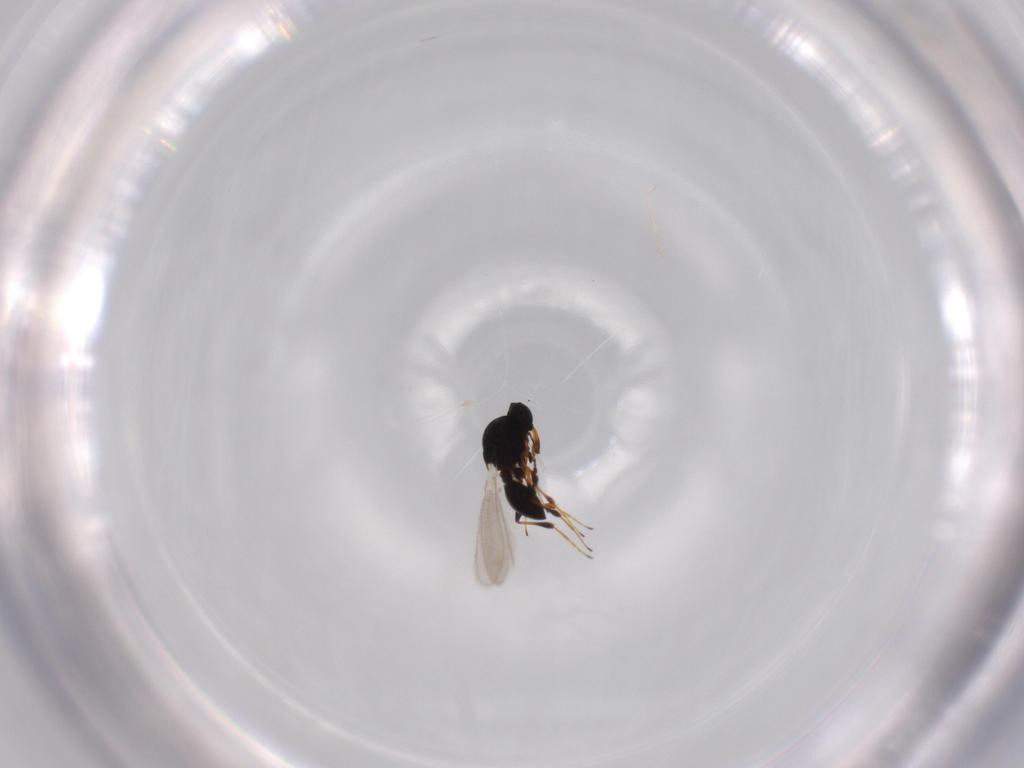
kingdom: Animalia
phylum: Arthropoda
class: Insecta
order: Hymenoptera
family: Platygastridae
